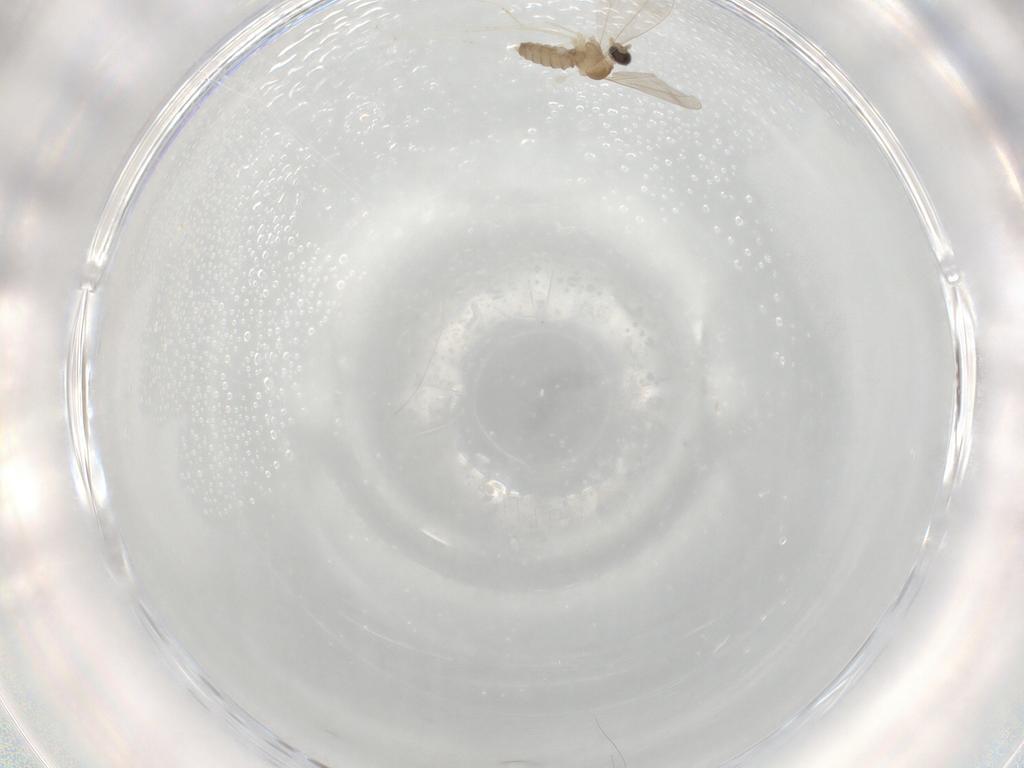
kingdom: Animalia
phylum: Arthropoda
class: Insecta
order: Diptera
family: Cecidomyiidae
